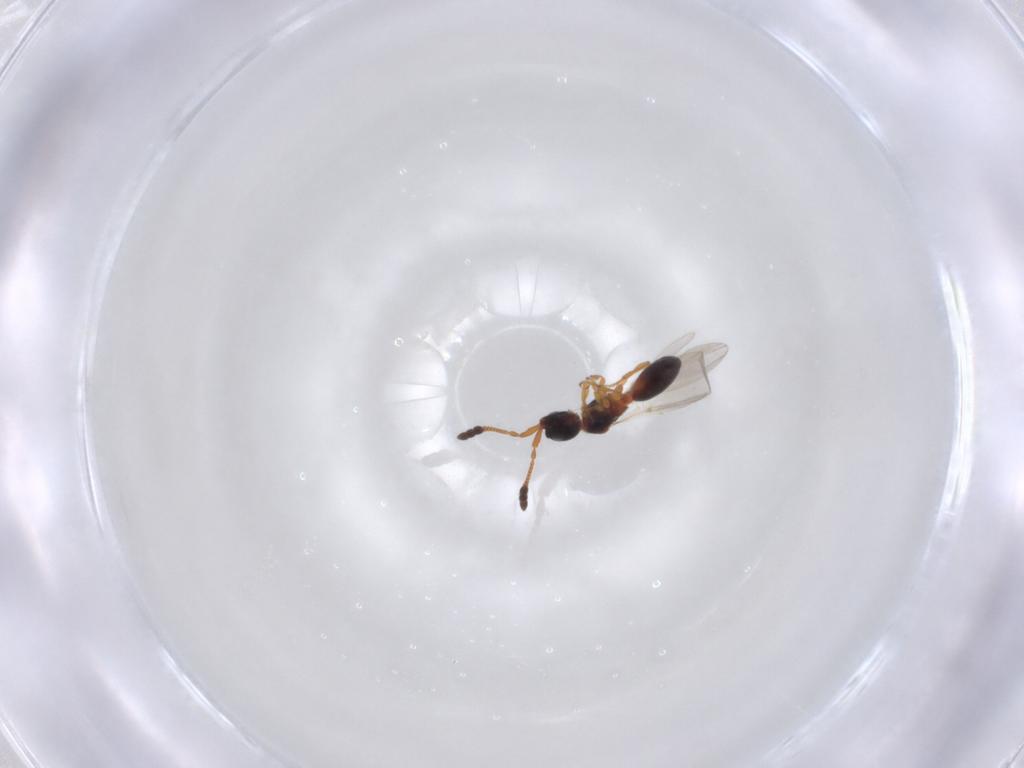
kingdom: Animalia
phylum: Arthropoda
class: Insecta
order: Hymenoptera
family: Diapriidae
